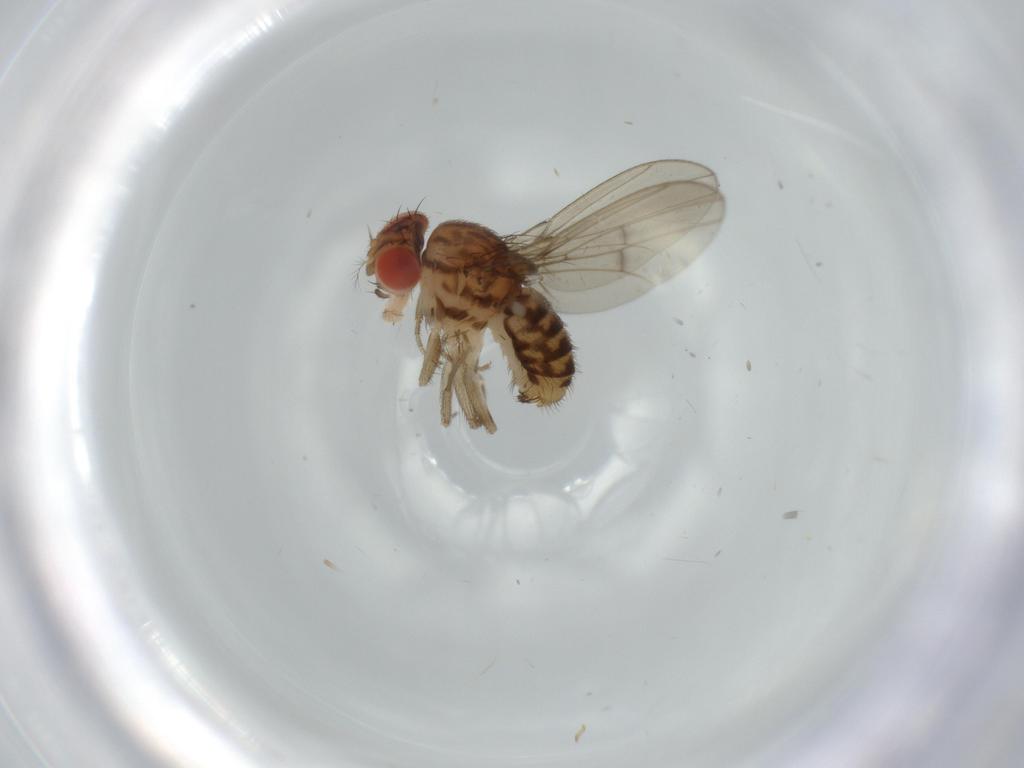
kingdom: Animalia
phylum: Arthropoda
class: Insecta
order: Diptera
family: Drosophilidae
